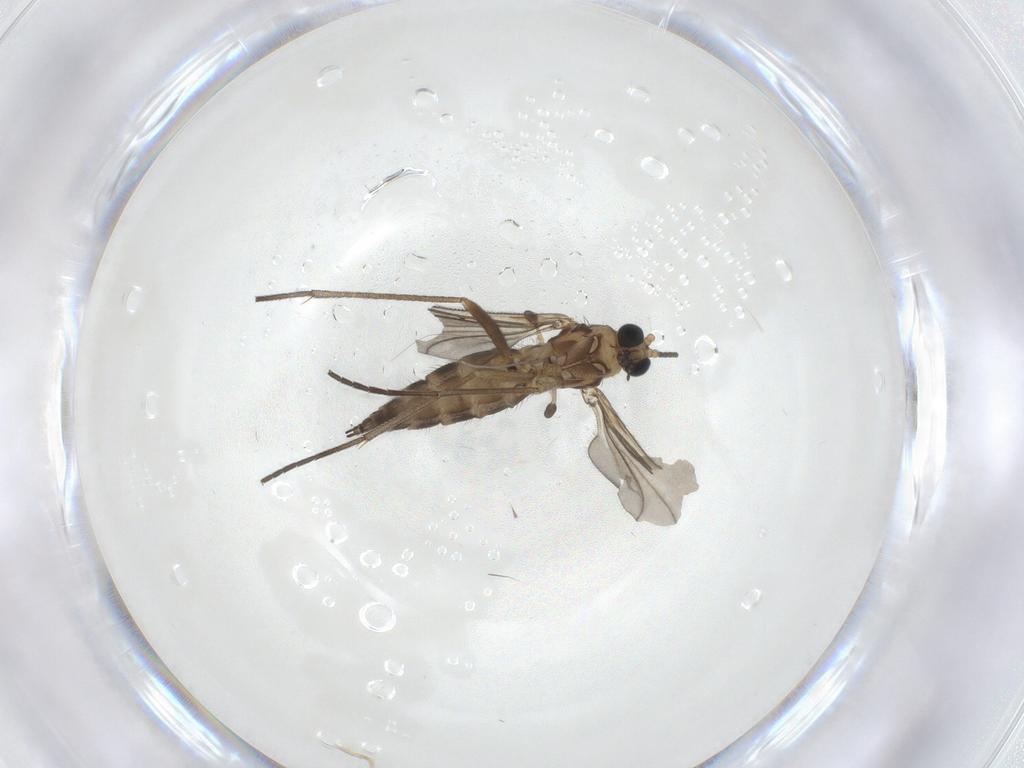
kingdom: Animalia
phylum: Arthropoda
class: Insecta
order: Diptera
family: Sciaridae
